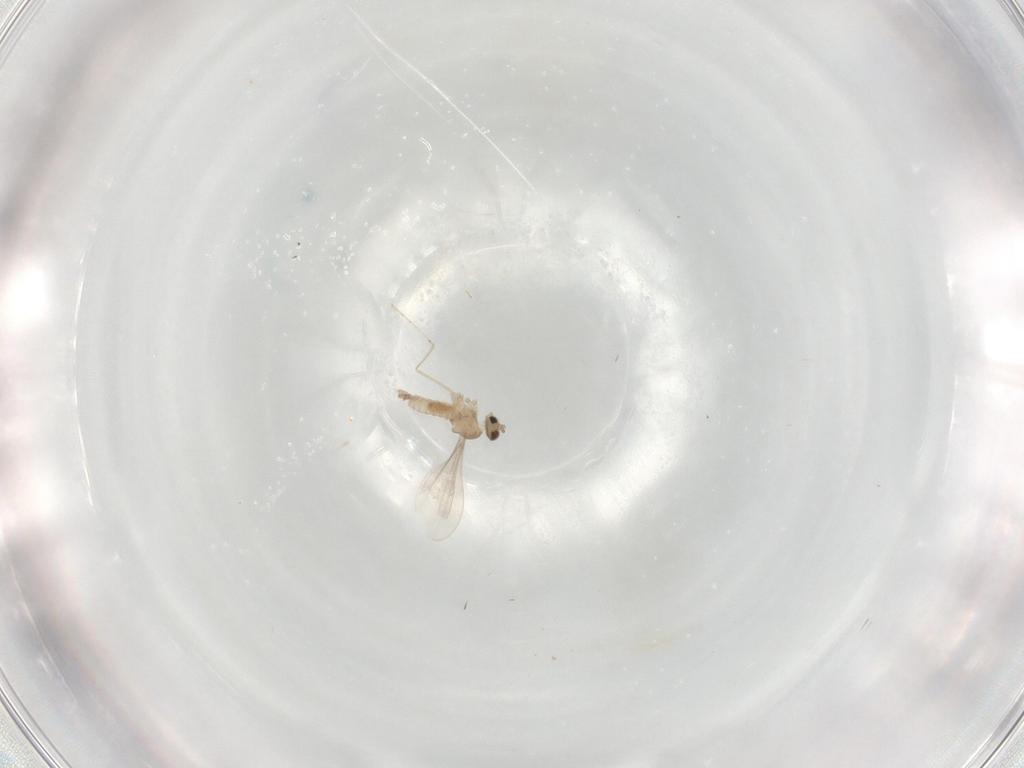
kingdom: Animalia
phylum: Arthropoda
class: Insecta
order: Diptera
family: Cecidomyiidae
